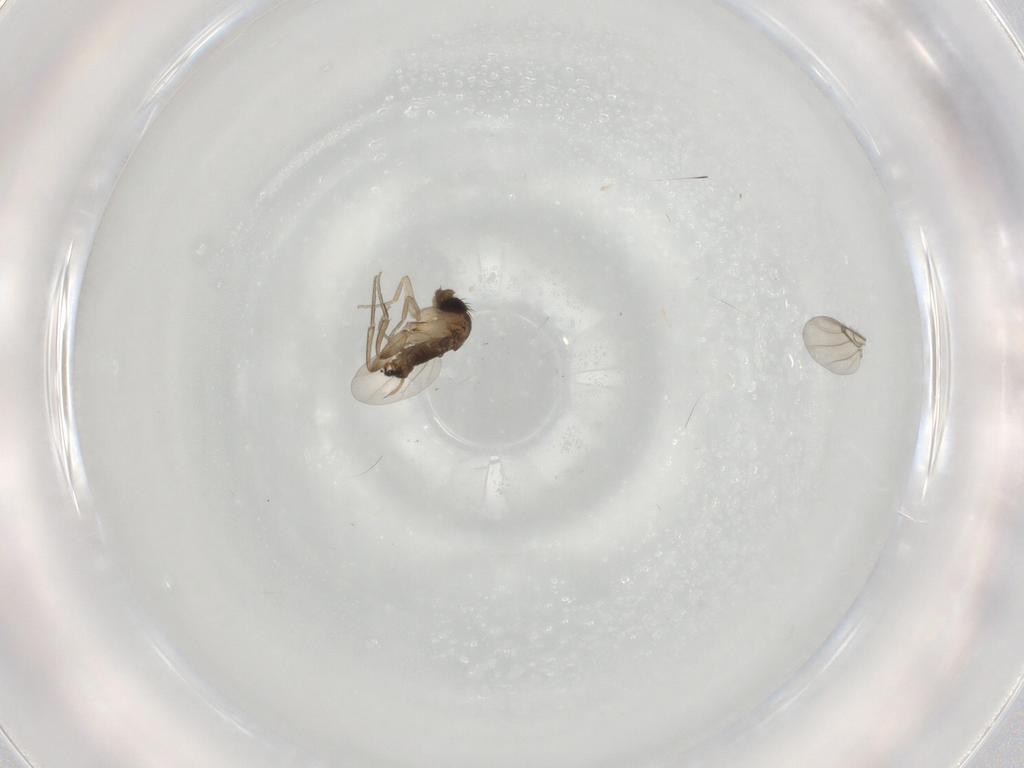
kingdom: Animalia
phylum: Arthropoda
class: Insecta
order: Diptera
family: Phoridae
